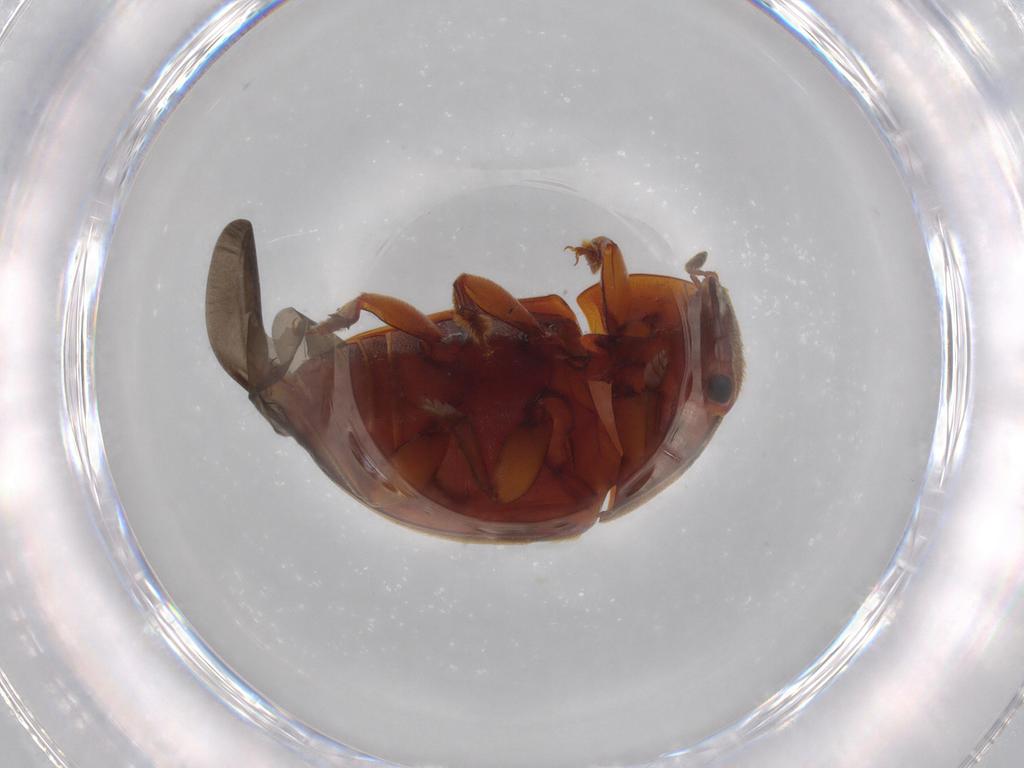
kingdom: Animalia
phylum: Arthropoda
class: Insecta
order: Coleoptera
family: Nitidulidae
